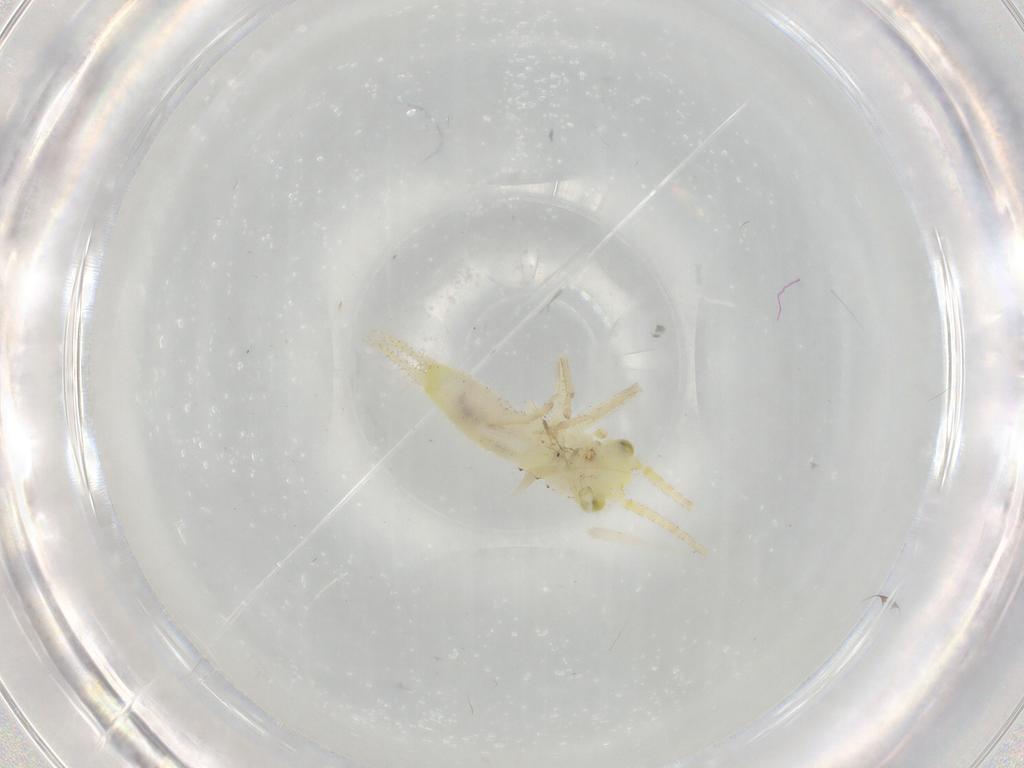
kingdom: Animalia
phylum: Arthropoda
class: Insecta
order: Orthoptera
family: Trigonidiidae
